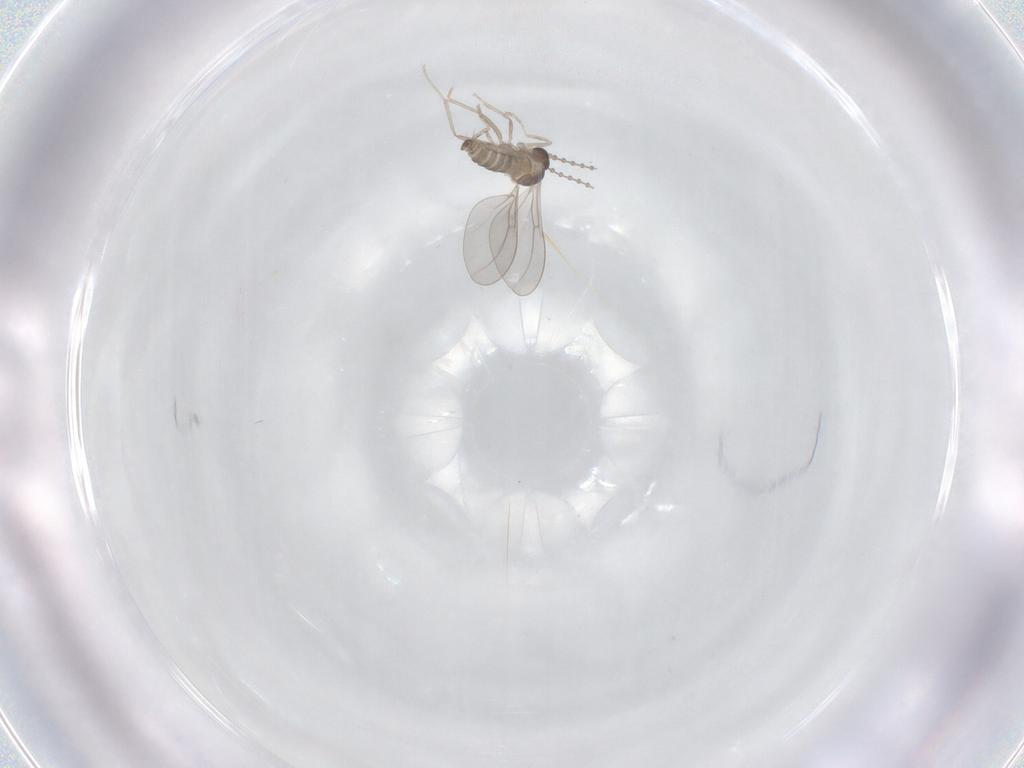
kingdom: Animalia
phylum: Arthropoda
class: Insecta
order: Diptera
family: Cecidomyiidae
